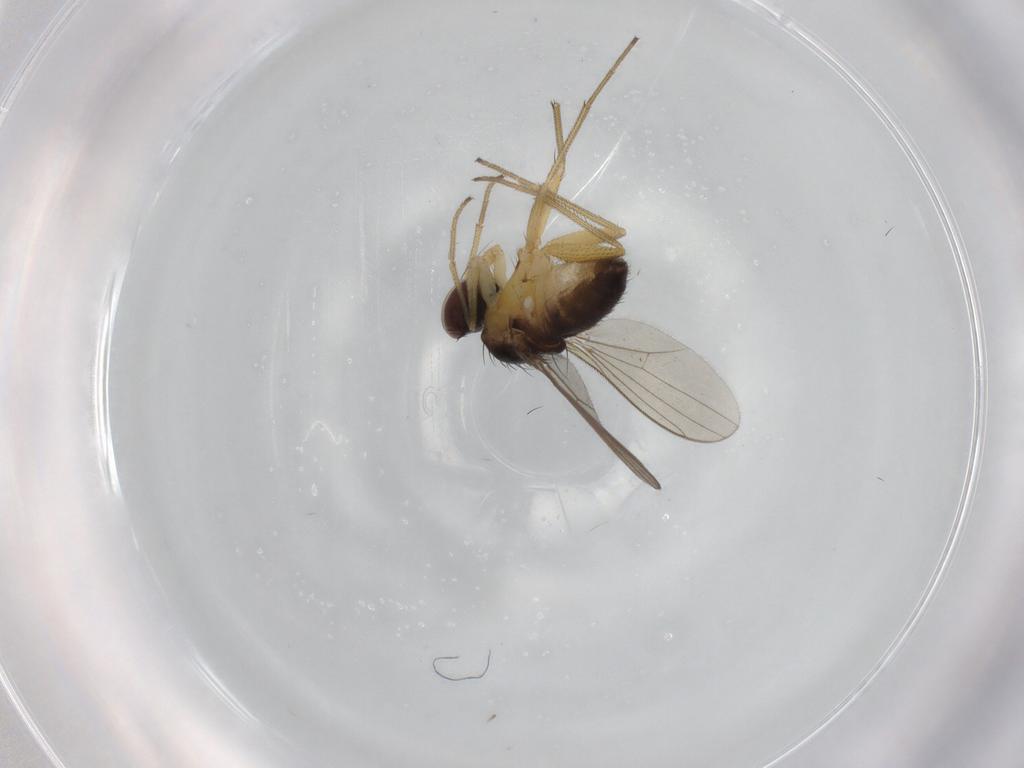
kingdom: Animalia
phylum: Arthropoda
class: Insecta
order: Diptera
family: Dolichopodidae
